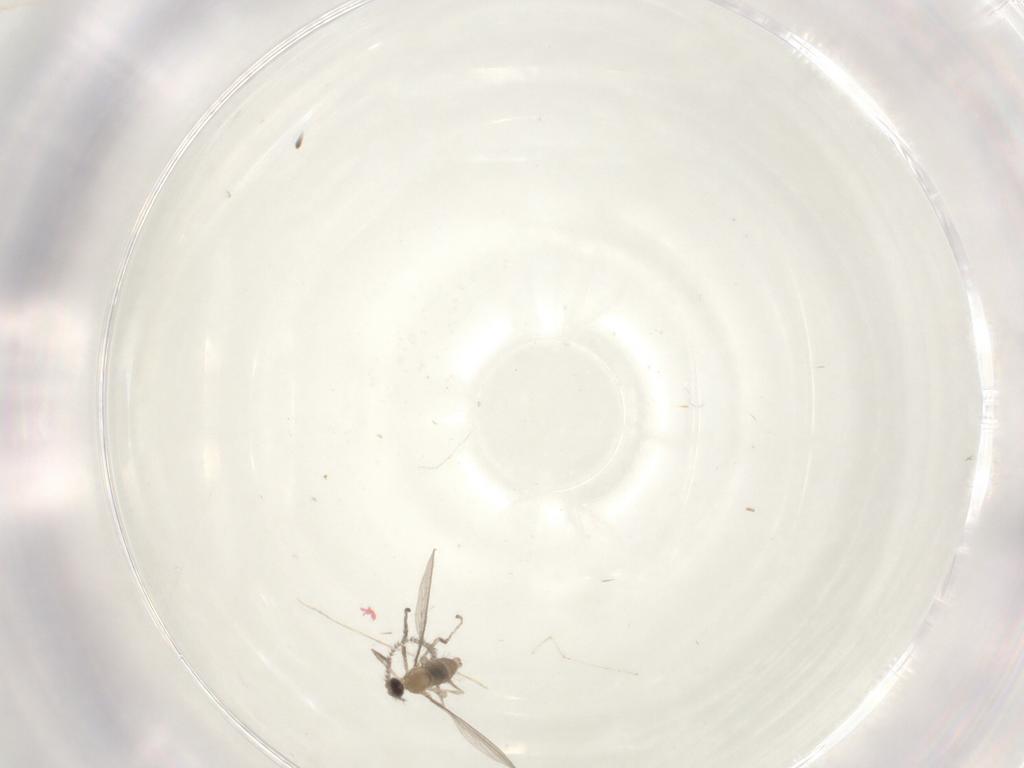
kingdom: Animalia
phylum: Arthropoda
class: Insecta
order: Diptera
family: Cecidomyiidae
